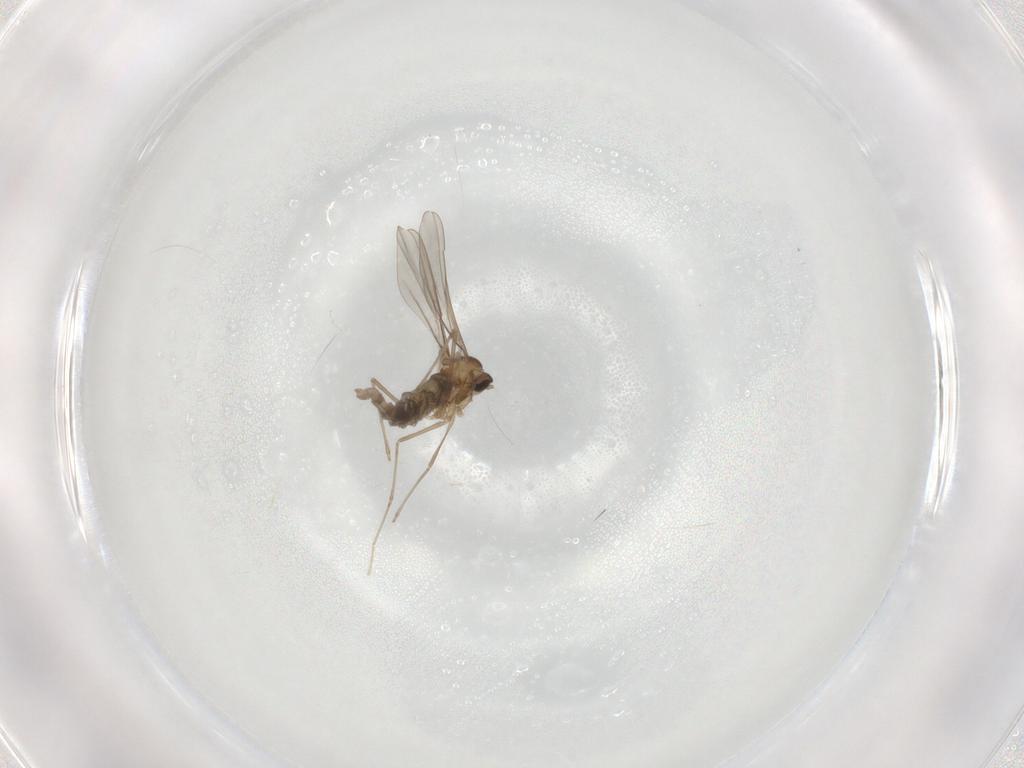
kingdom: Animalia
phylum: Arthropoda
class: Insecta
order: Diptera
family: Cecidomyiidae
